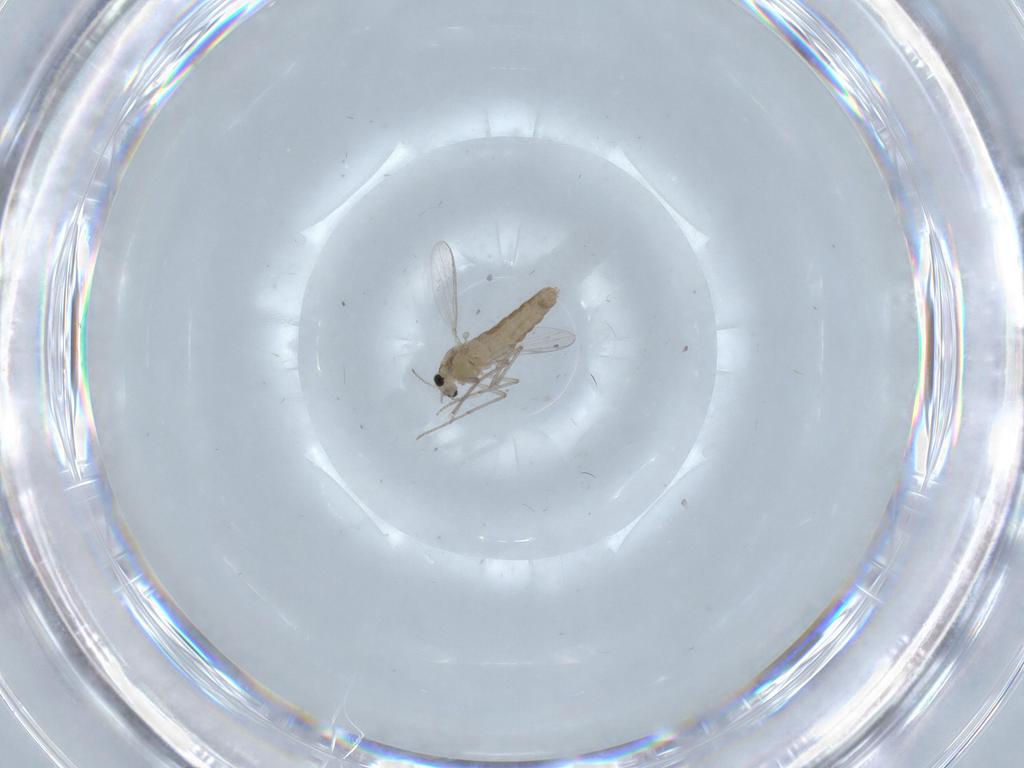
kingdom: Animalia
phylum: Arthropoda
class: Insecta
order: Diptera
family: Chironomidae
